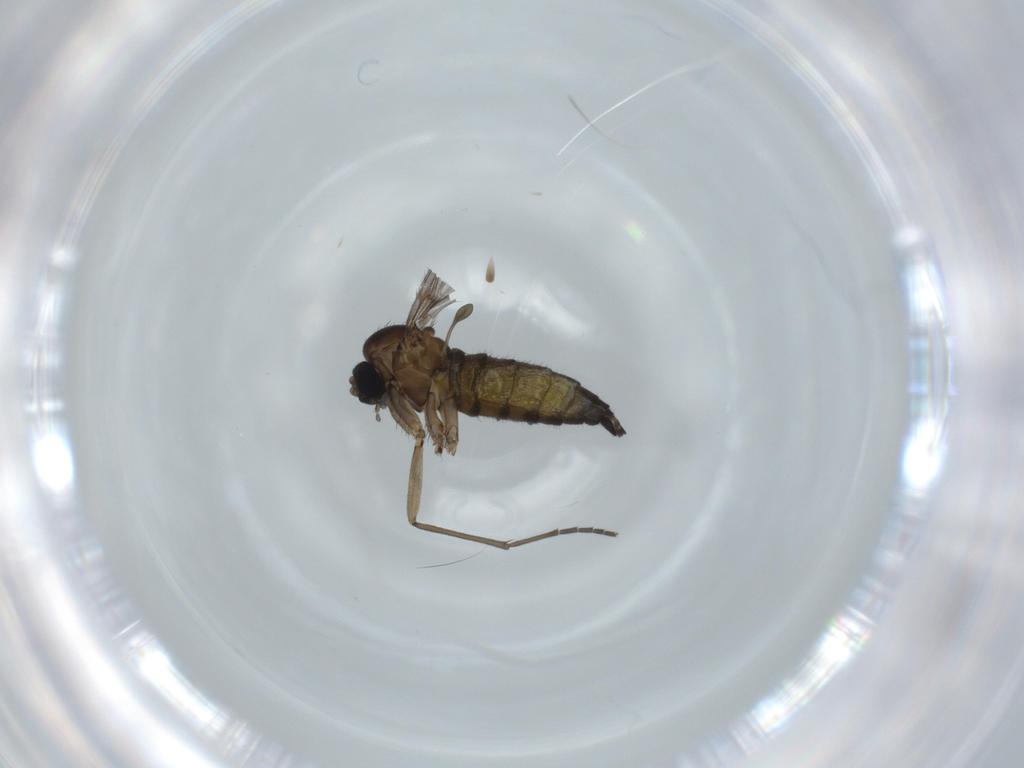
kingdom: Animalia
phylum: Arthropoda
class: Insecta
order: Diptera
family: Sciaridae
